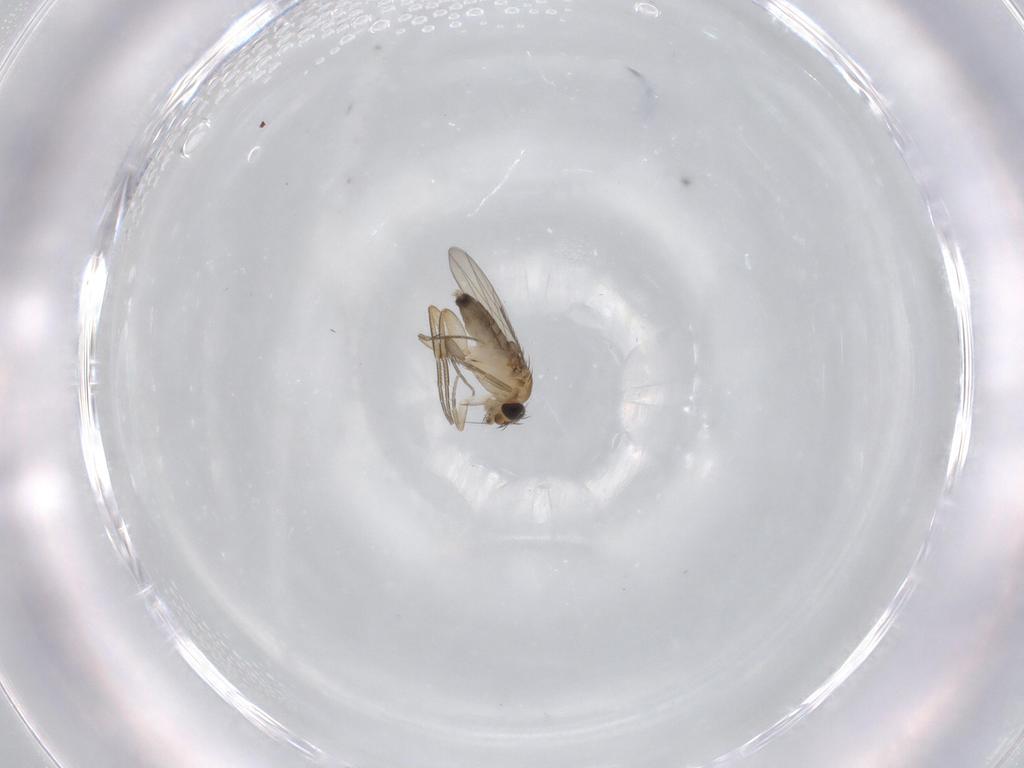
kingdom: Animalia
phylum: Arthropoda
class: Insecta
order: Diptera
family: Phoridae
